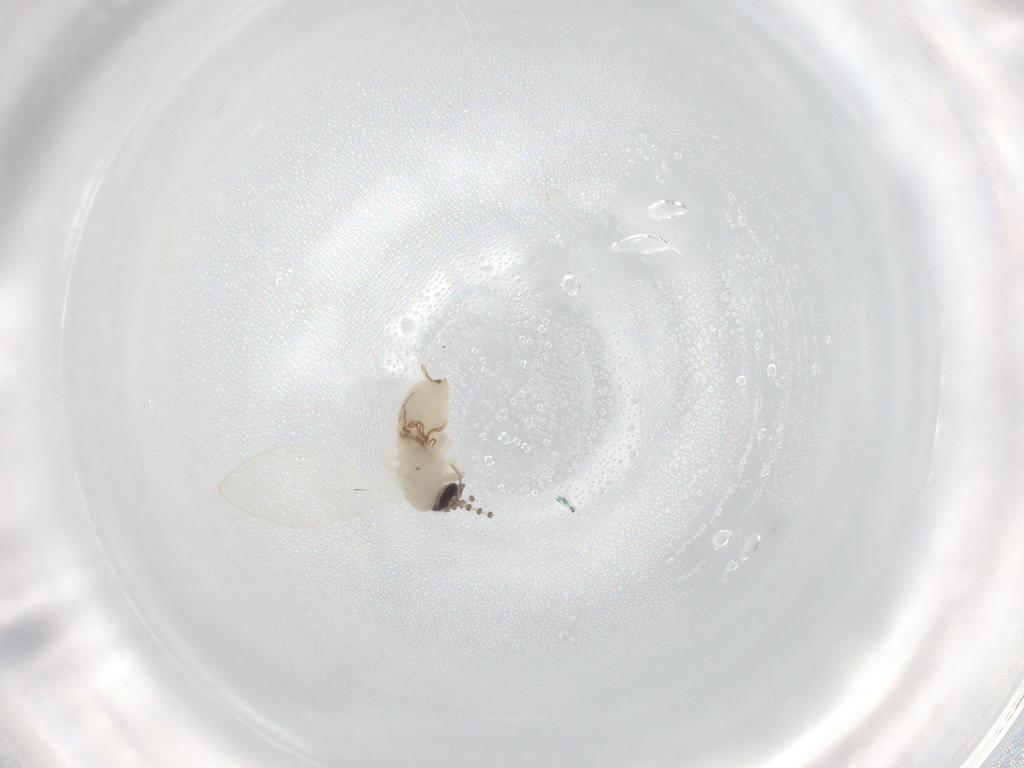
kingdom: Animalia
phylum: Arthropoda
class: Insecta
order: Diptera
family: Psychodidae
